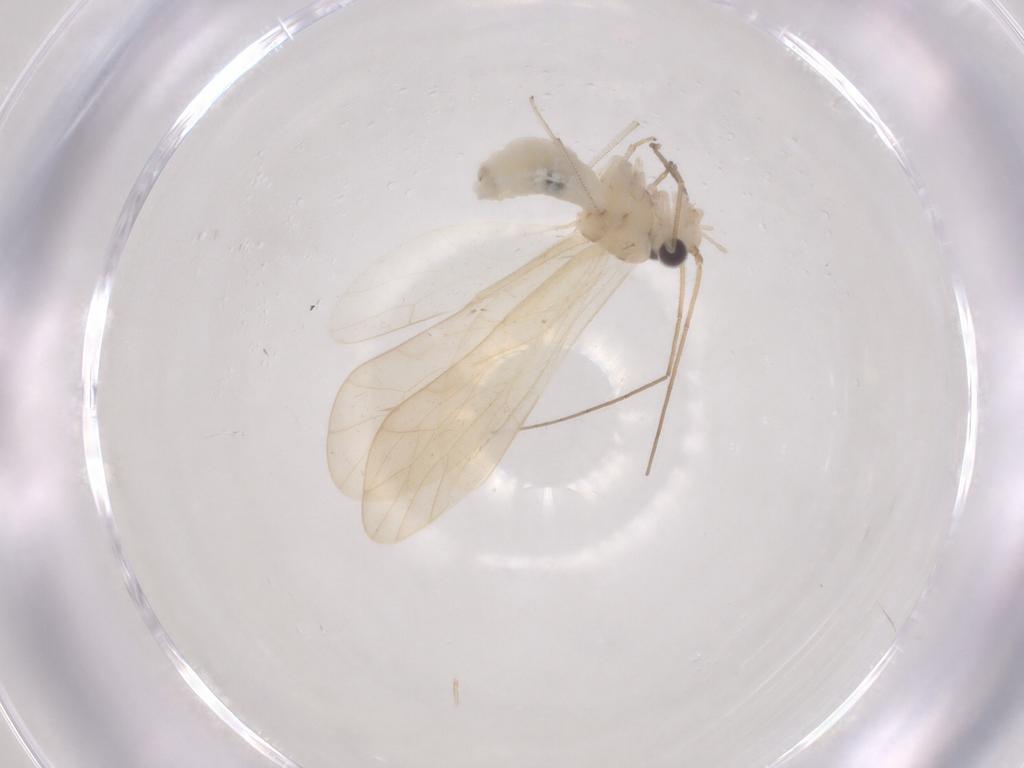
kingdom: Animalia
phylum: Arthropoda
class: Insecta
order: Psocodea
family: Caeciliusidae
